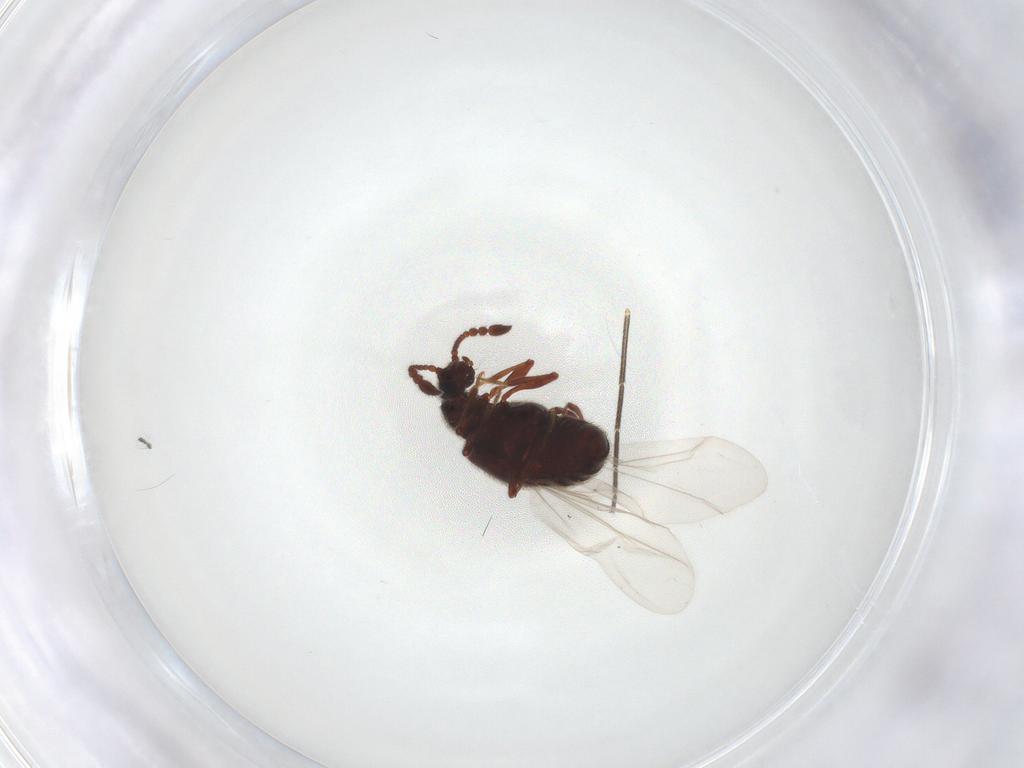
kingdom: Animalia
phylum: Arthropoda
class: Insecta
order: Coleoptera
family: Staphylinidae
